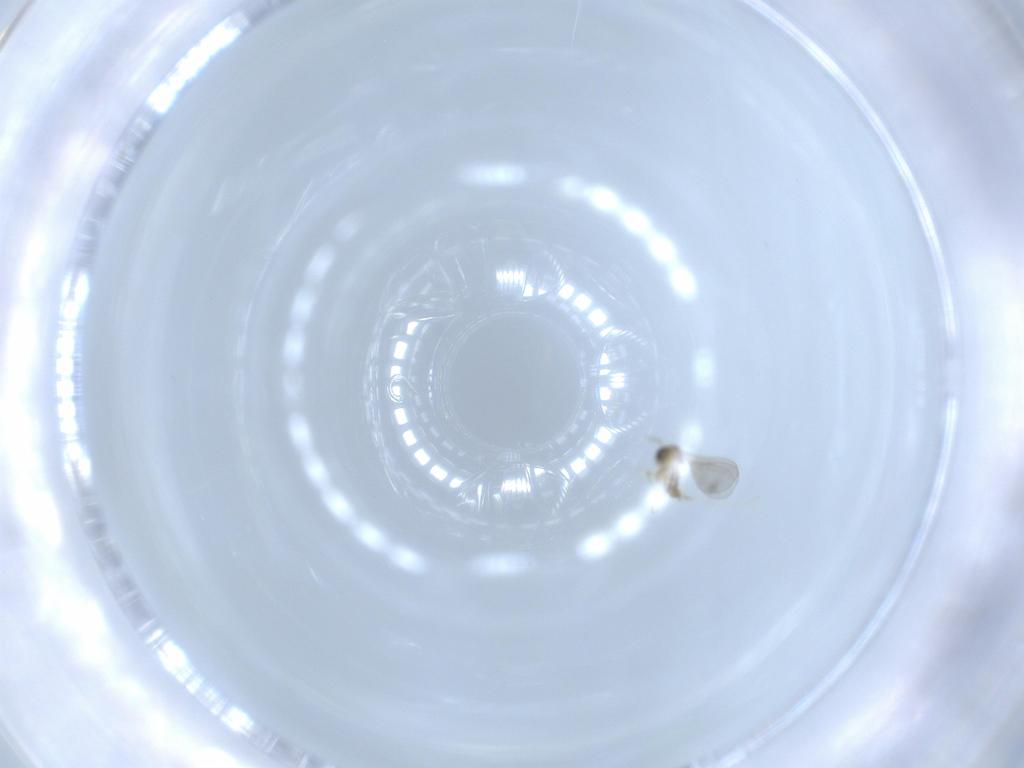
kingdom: Animalia
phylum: Arthropoda
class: Insecta
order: Diptera
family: Cecidomyiidae
